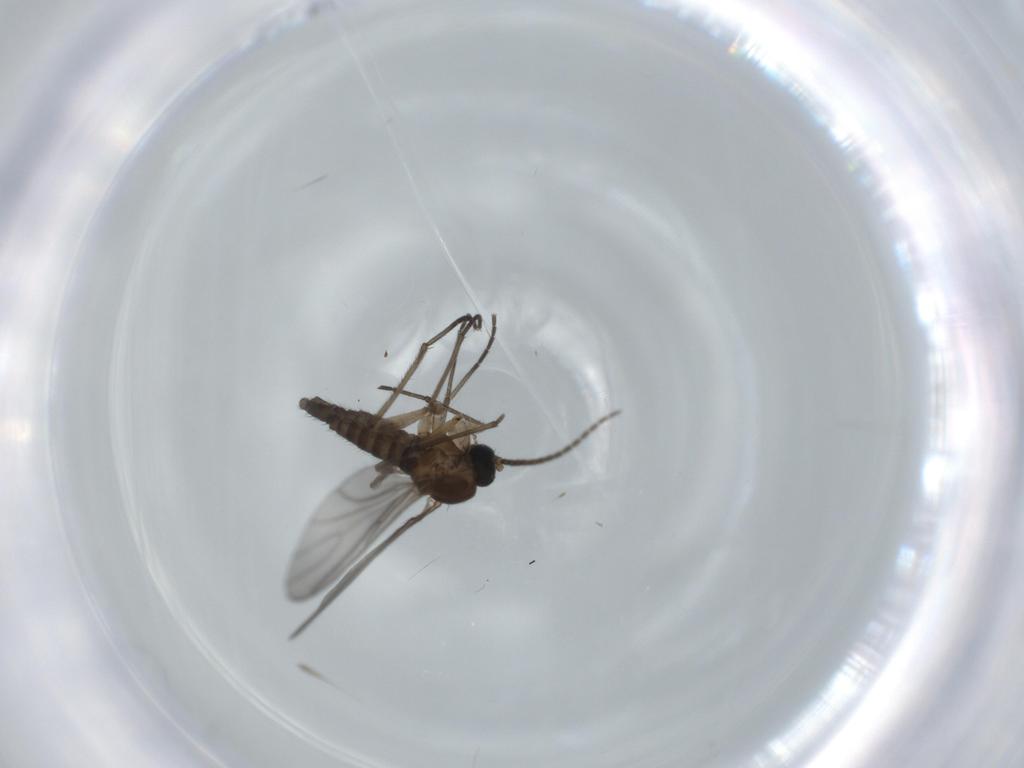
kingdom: Animalia
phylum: Arthropoda
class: Insecta
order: Diptera
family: Sciaridae
